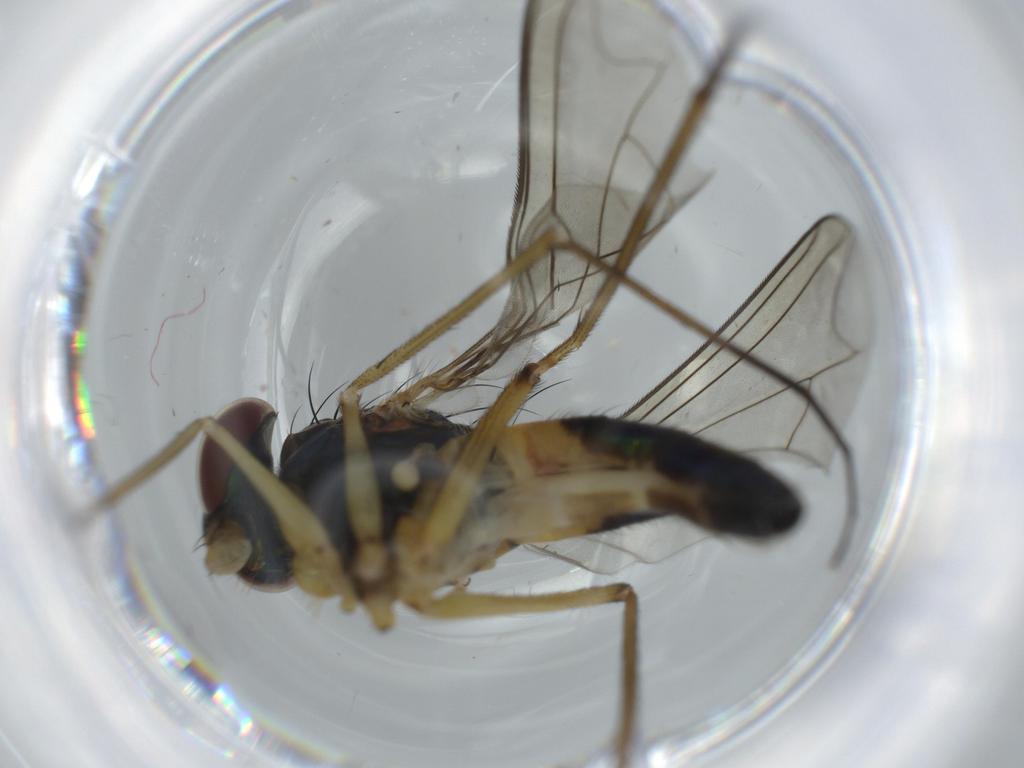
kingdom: Animalia
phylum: Arthropoda
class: Insecta
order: Diptera
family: Dolichopodidae
